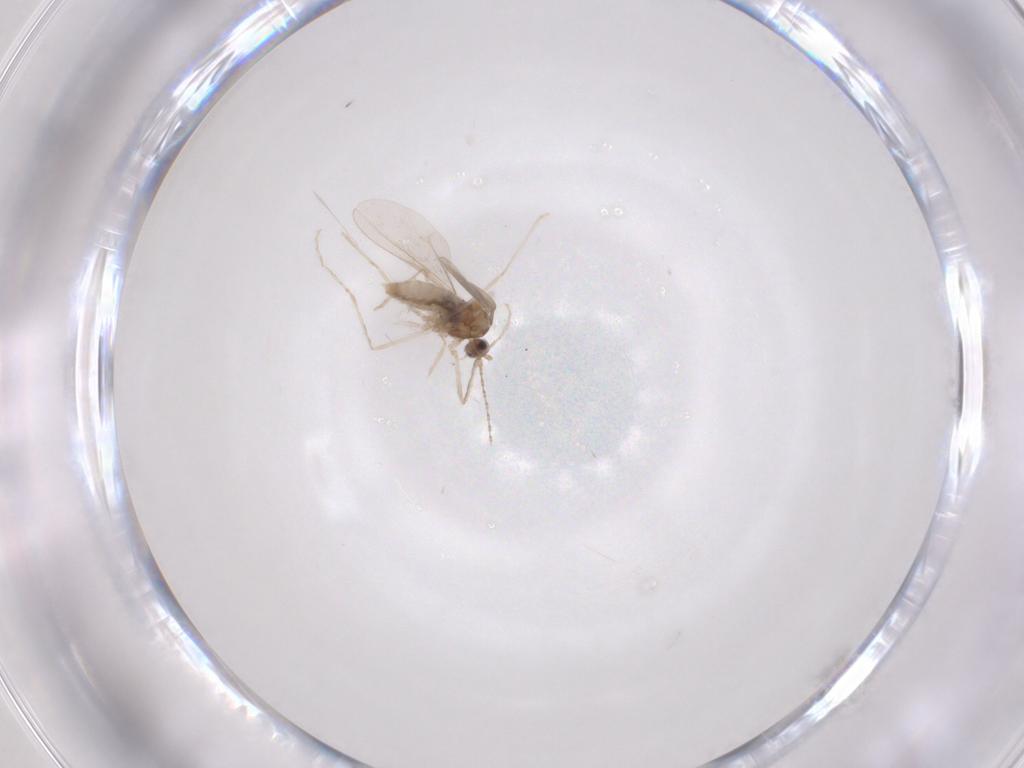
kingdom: Animalia
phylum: Arthropoda
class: Insecta
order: Diptera
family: Cecidomyiidae
